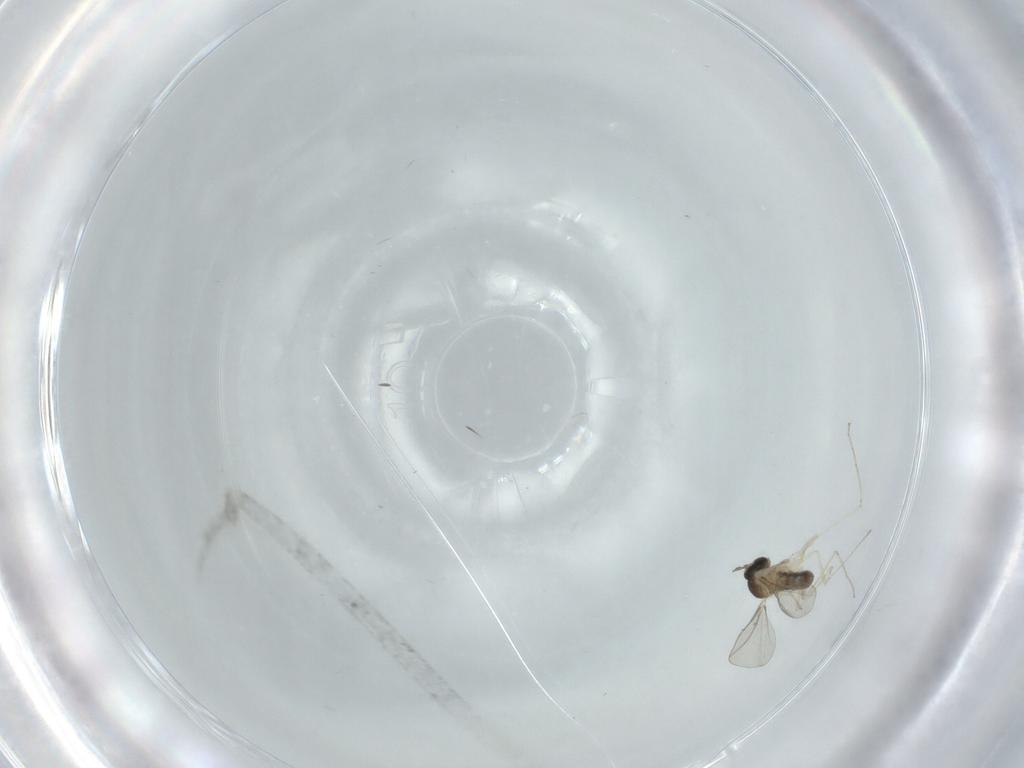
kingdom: Animalia
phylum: Arthropoda
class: Insecta
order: Diptera
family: Cecidomyiidae
